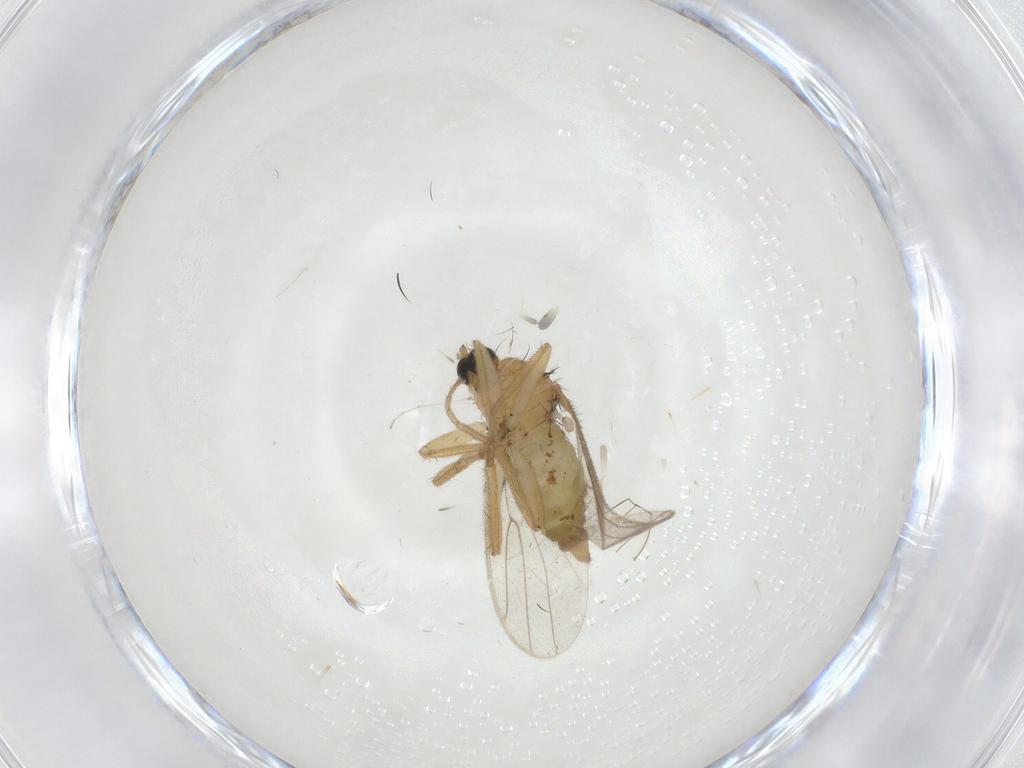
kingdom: Animalia
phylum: Arthropoda
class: Insecta
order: Diptera
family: Hybotidae
